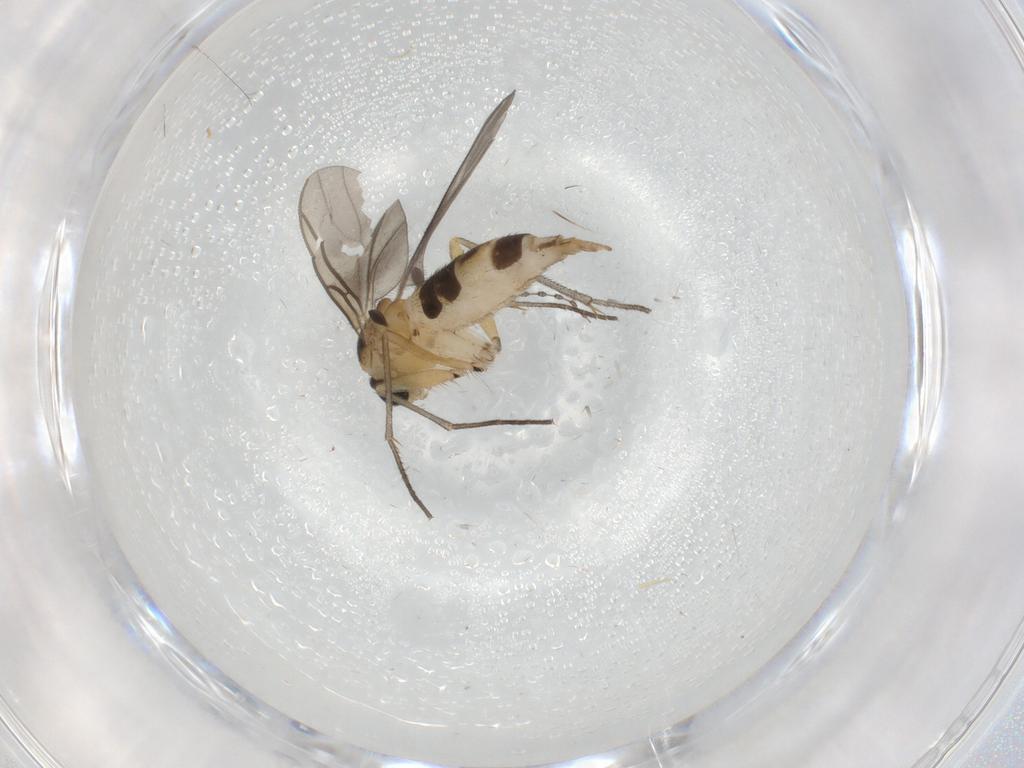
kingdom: Animalia
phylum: Arthropoda
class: Insecta
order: Diptera
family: Sciaridae
